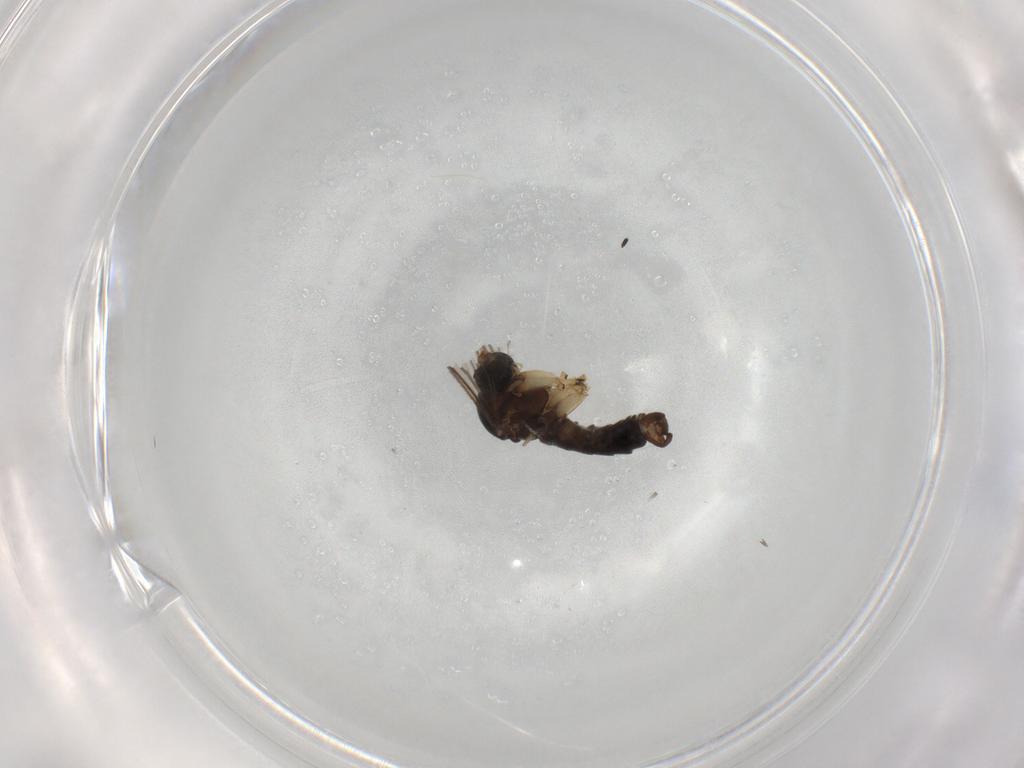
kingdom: Animalia
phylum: Arthropoda
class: Insecta
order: Diptera
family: Sciaridae
